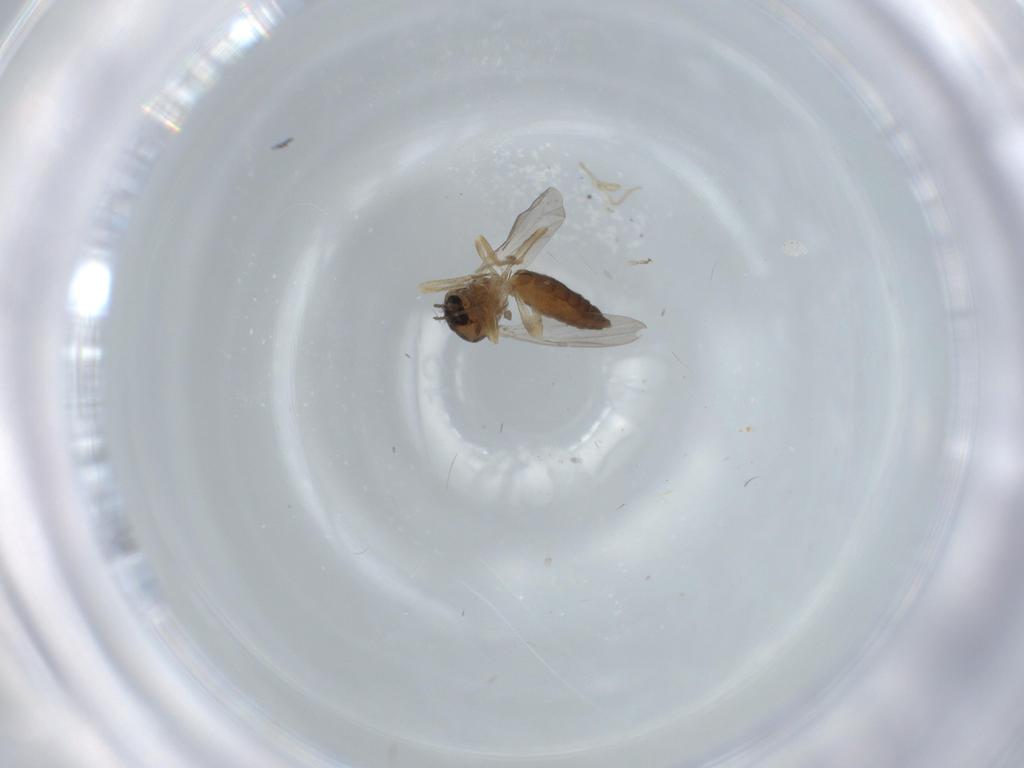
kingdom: Animalia
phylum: Arthropoda
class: Insecta
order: Diptera
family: Ceratopogonidae
